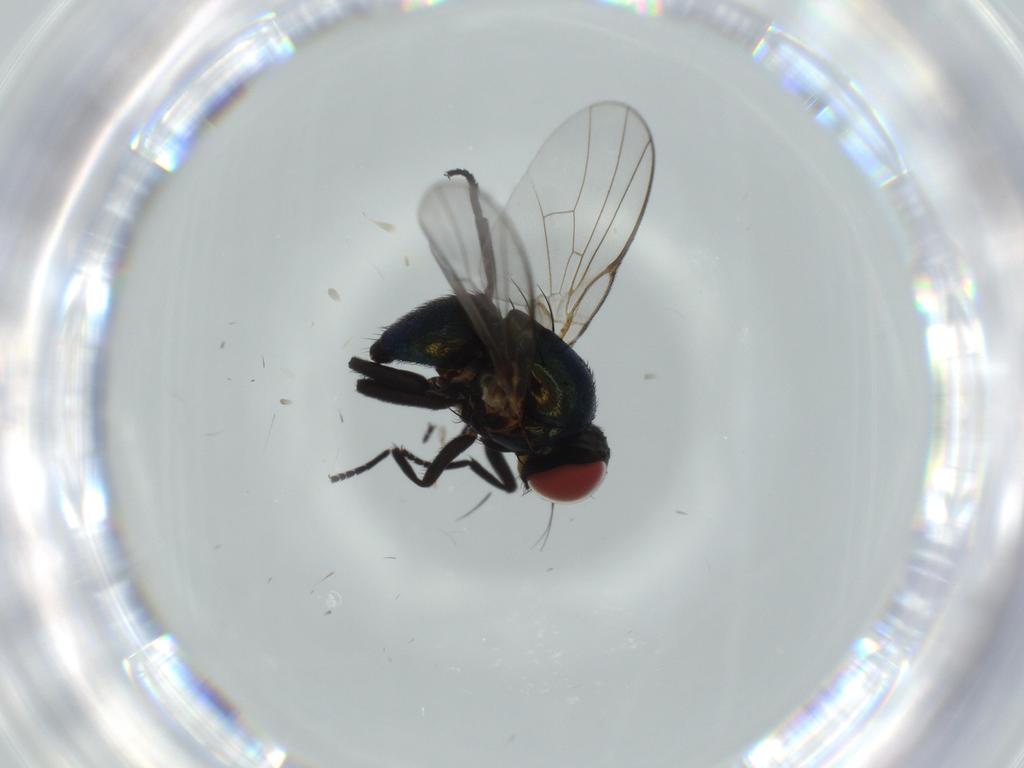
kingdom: Animalia
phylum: Arthropoda
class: Insecta
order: Diptera
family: Agromyzidae
